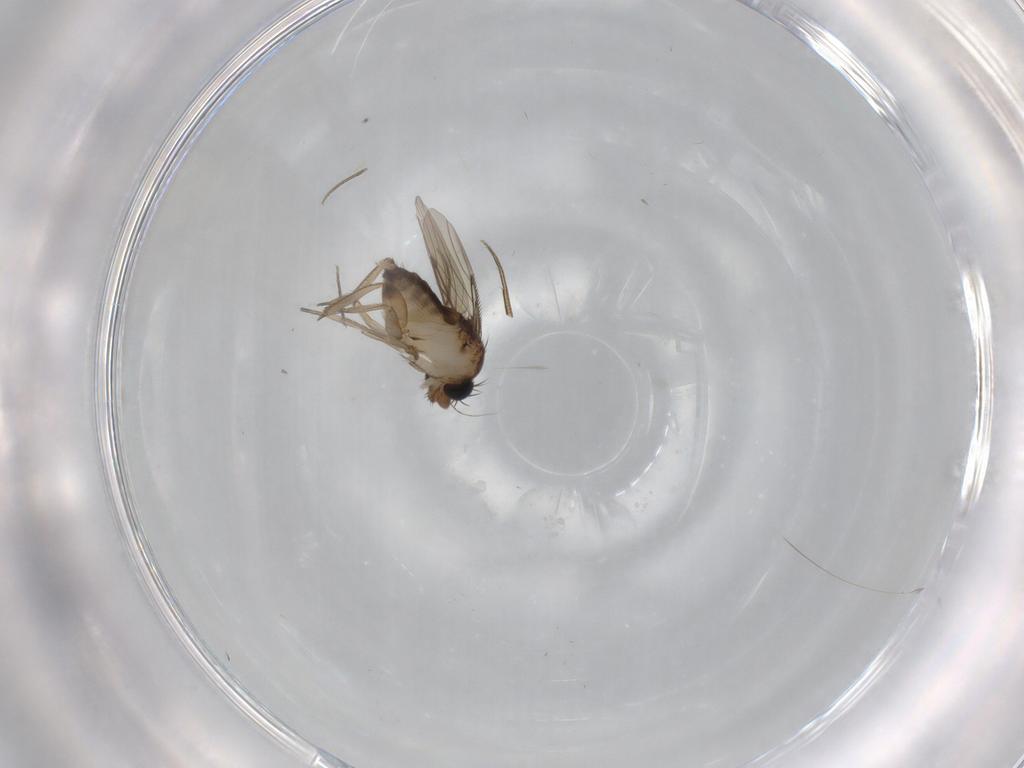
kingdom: Animalia
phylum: Arthropoda
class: Insecta
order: Diptera
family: Phoridae
